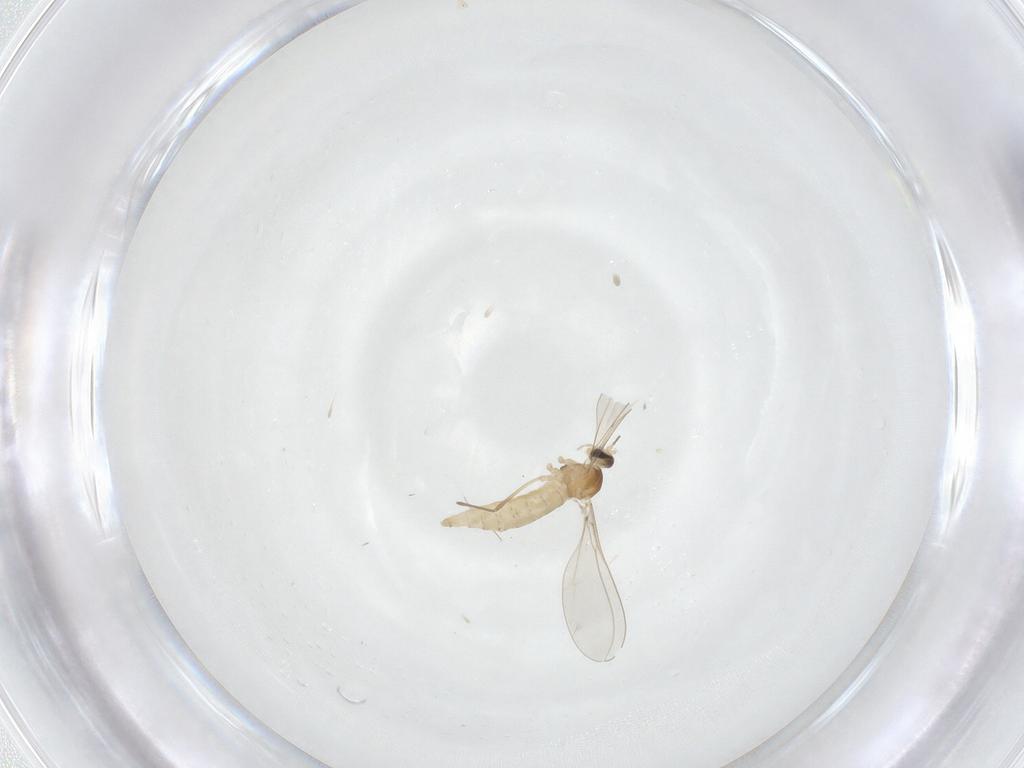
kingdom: Animalia
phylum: Arthropoda
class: Insecta
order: Diptera
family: Cecidomyiidae
